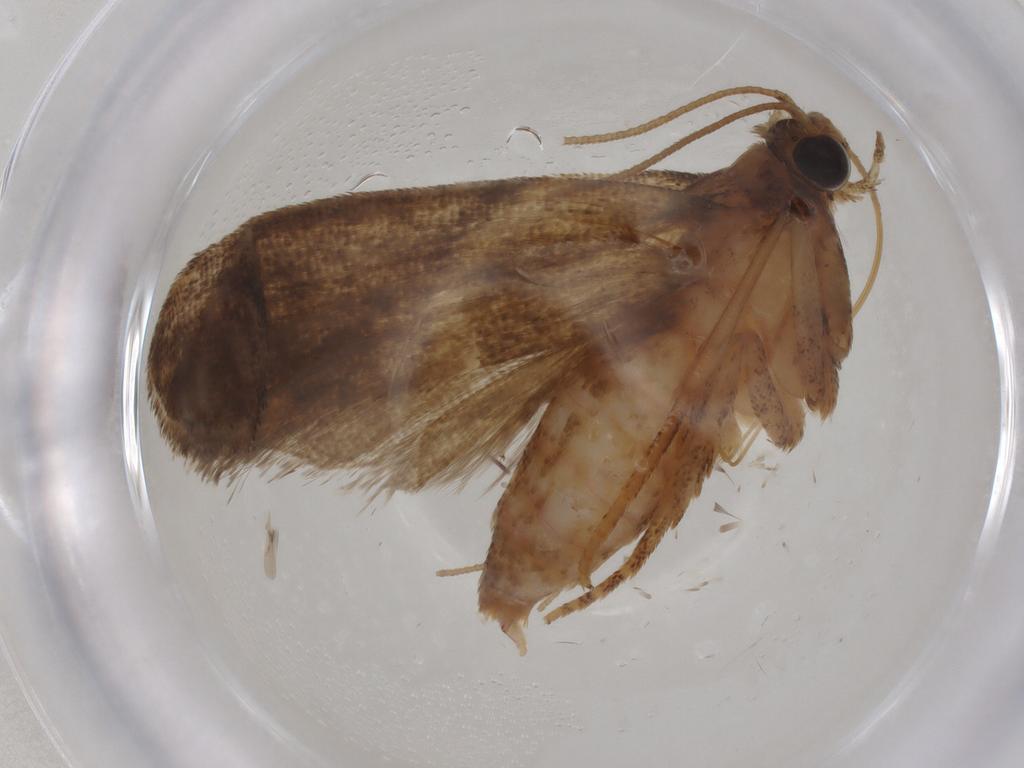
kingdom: Animalia
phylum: Arthropoda
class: Insecta
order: Lepidoptera
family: Pyralidae
